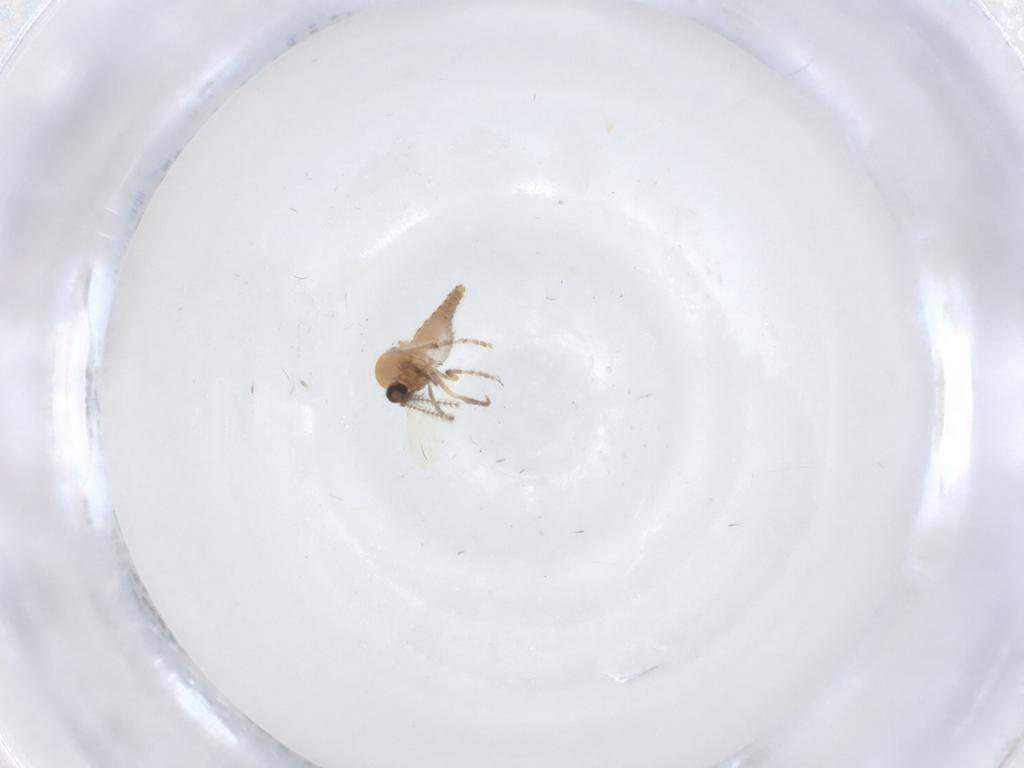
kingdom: Animalia
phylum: Arthropoda
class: Insecta
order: Diptera
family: Ceratopogonidae
